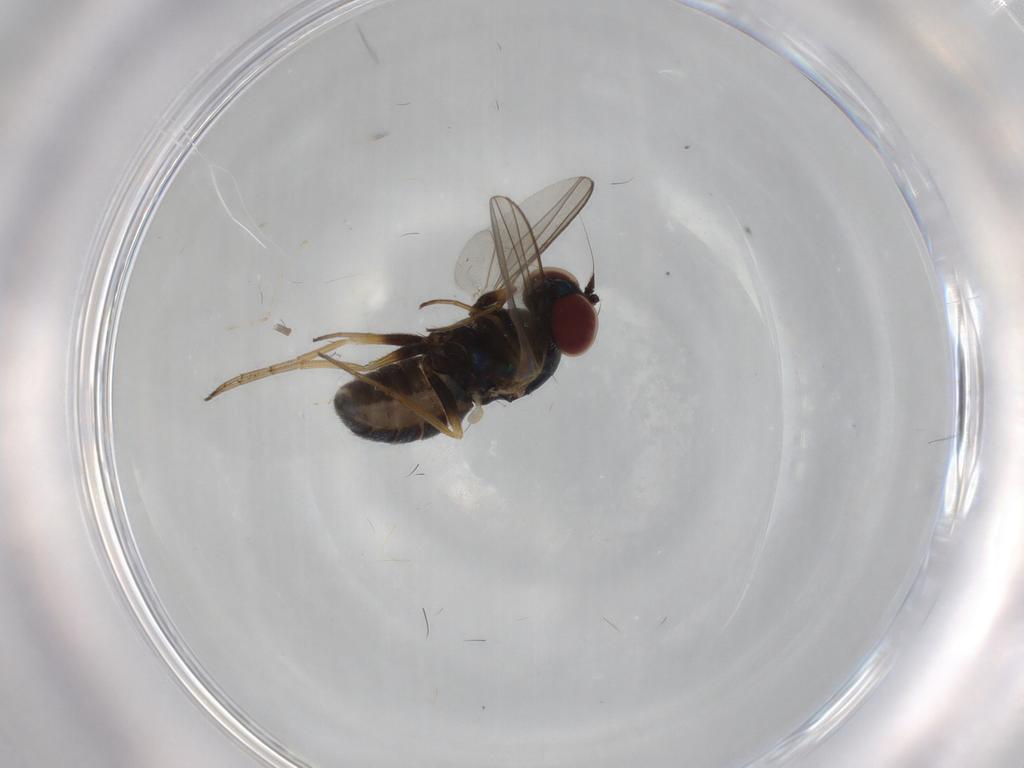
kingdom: Animalia
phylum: Arthropoda
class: Insecta
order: Diptera
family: Dolichopodidae
